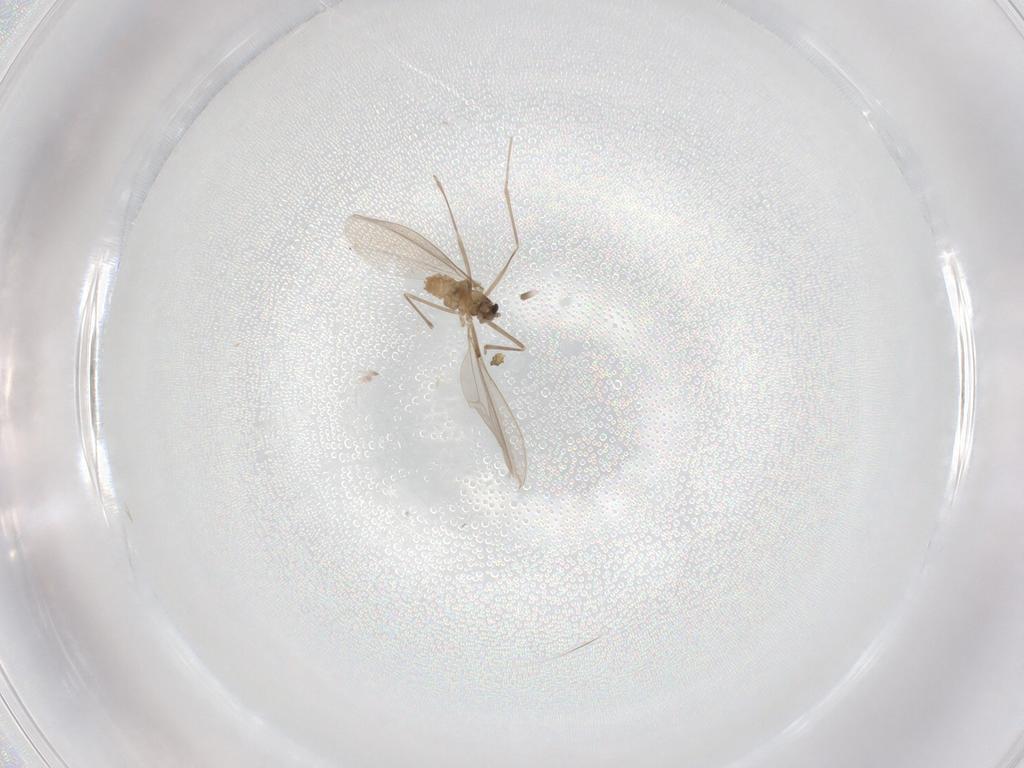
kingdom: Animalia
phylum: Arthropoda
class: Insecta
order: Diptera
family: Cecidomyiidae
